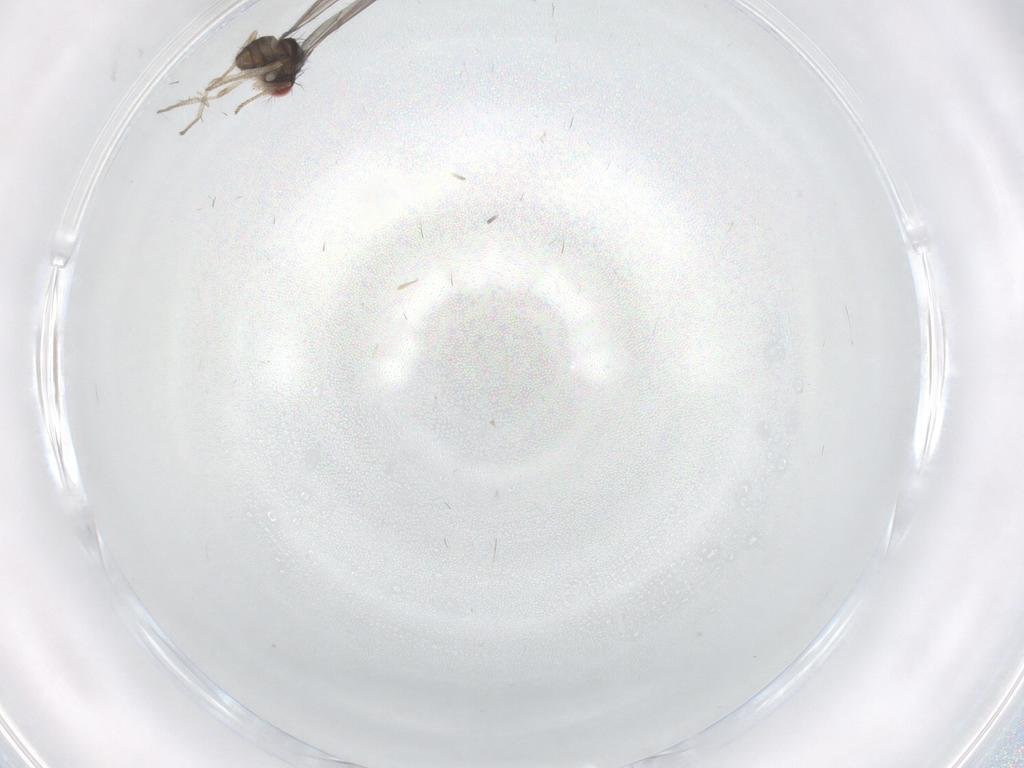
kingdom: Animalia
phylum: Arthropoda
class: Insecta
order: Diptera
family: Drosophilidae
